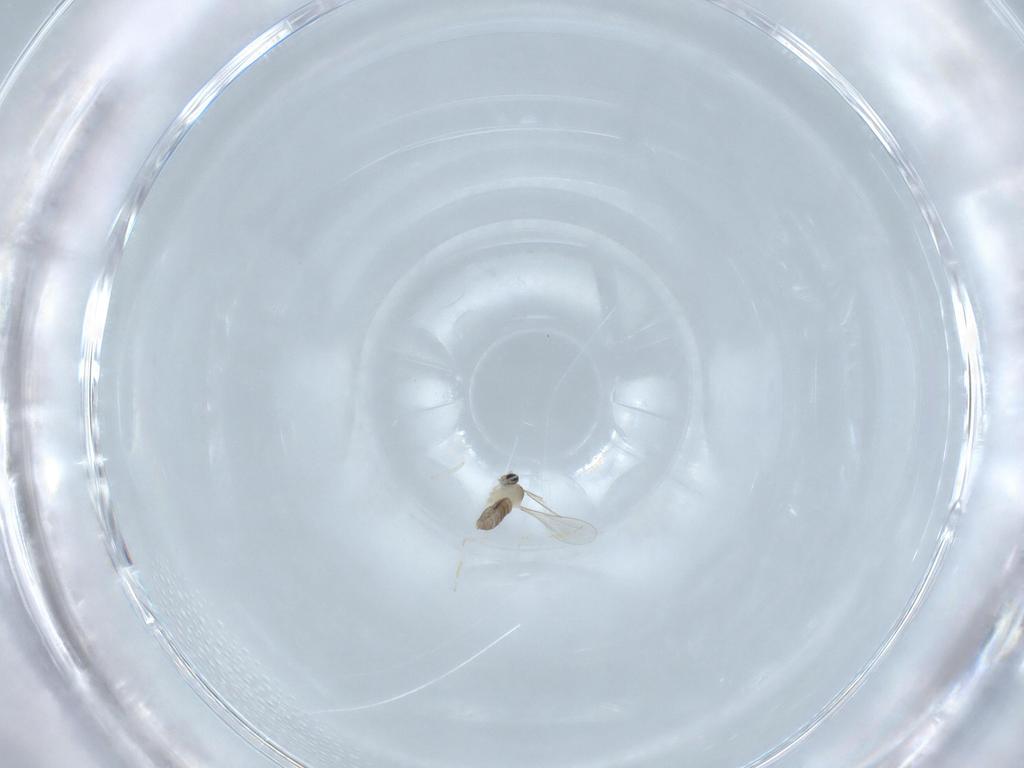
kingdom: Animalia
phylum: Arthropoda
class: Insecta
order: Diptera
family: Cecidomyiidae
